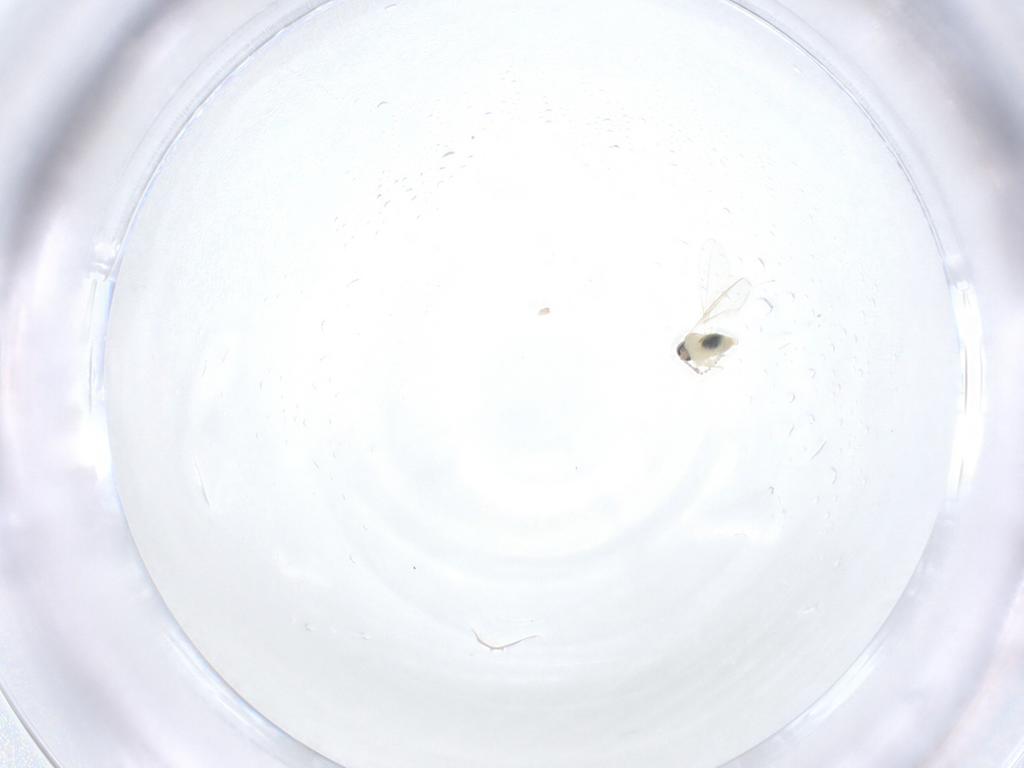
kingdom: Animalia
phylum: Arthropoda
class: Insecta
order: Diptera
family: Cecidomyiidae
